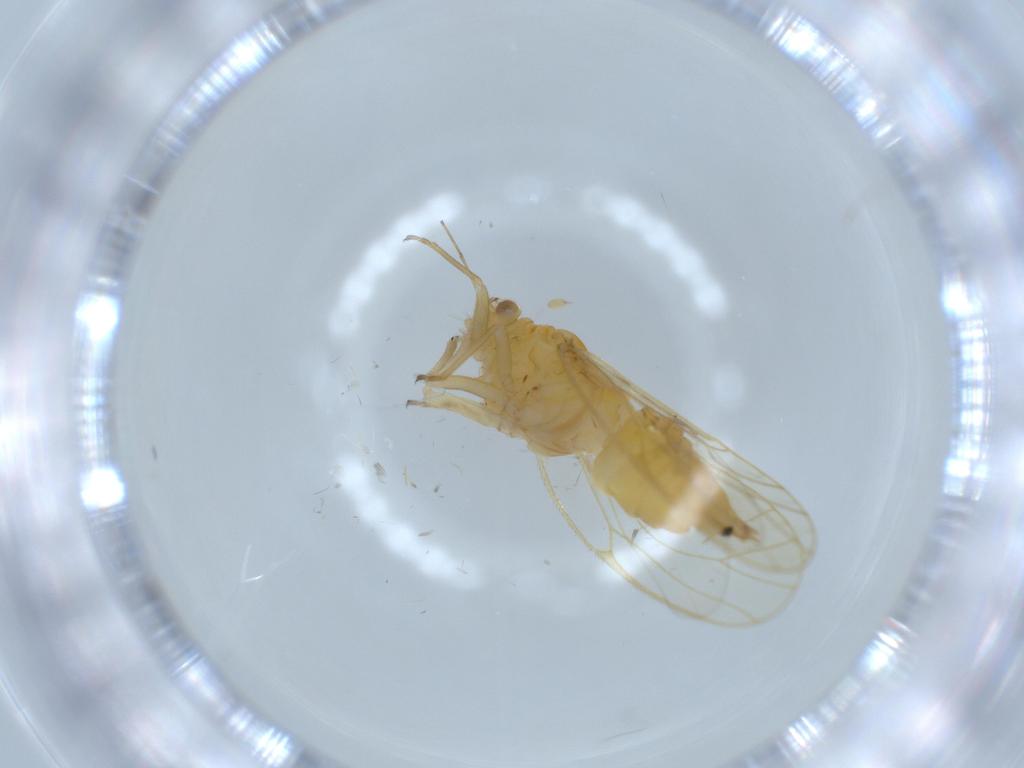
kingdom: Animalia
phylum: Arthropoda
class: Insecta
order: Hemiptera
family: Psyllidae
